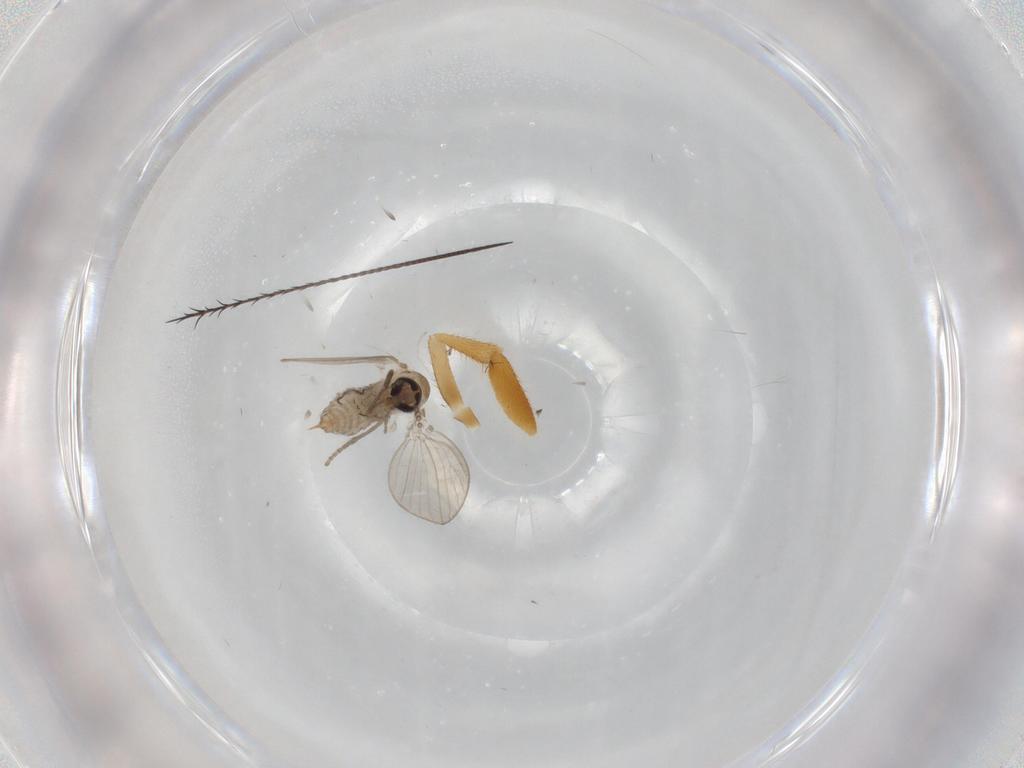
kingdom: Animalia
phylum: Arthropoda
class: Insecta
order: Diptera
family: Psychodidae
